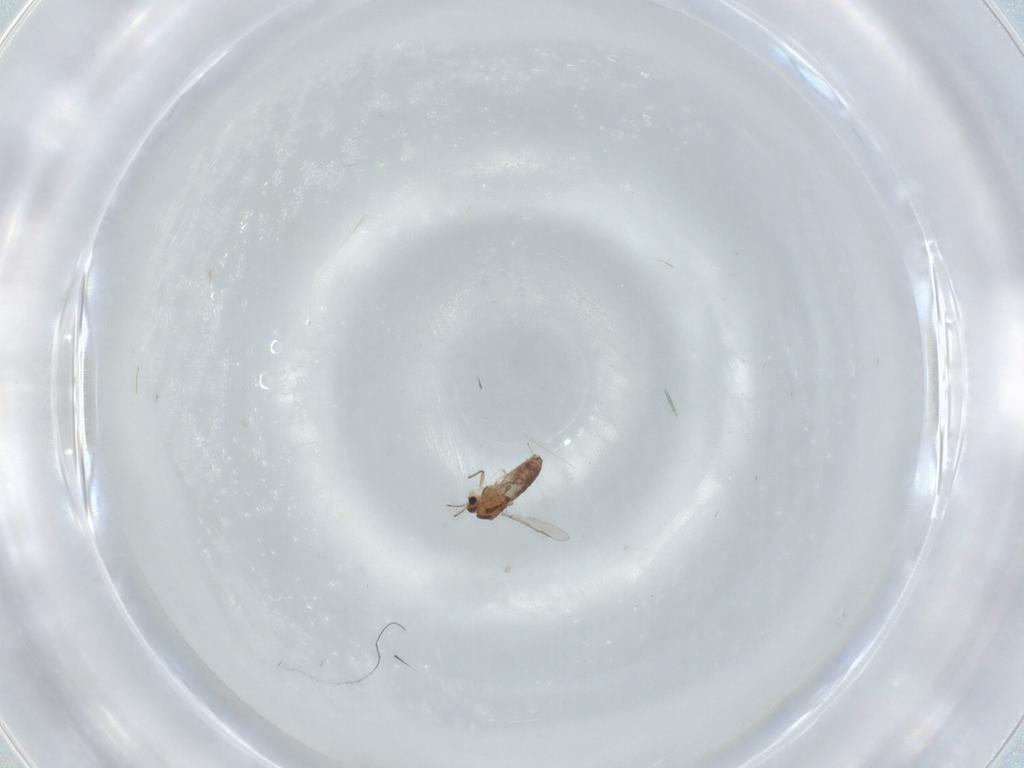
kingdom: Animalia
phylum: Arthropoda
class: Insecta
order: Diptera
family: Chironomidae
